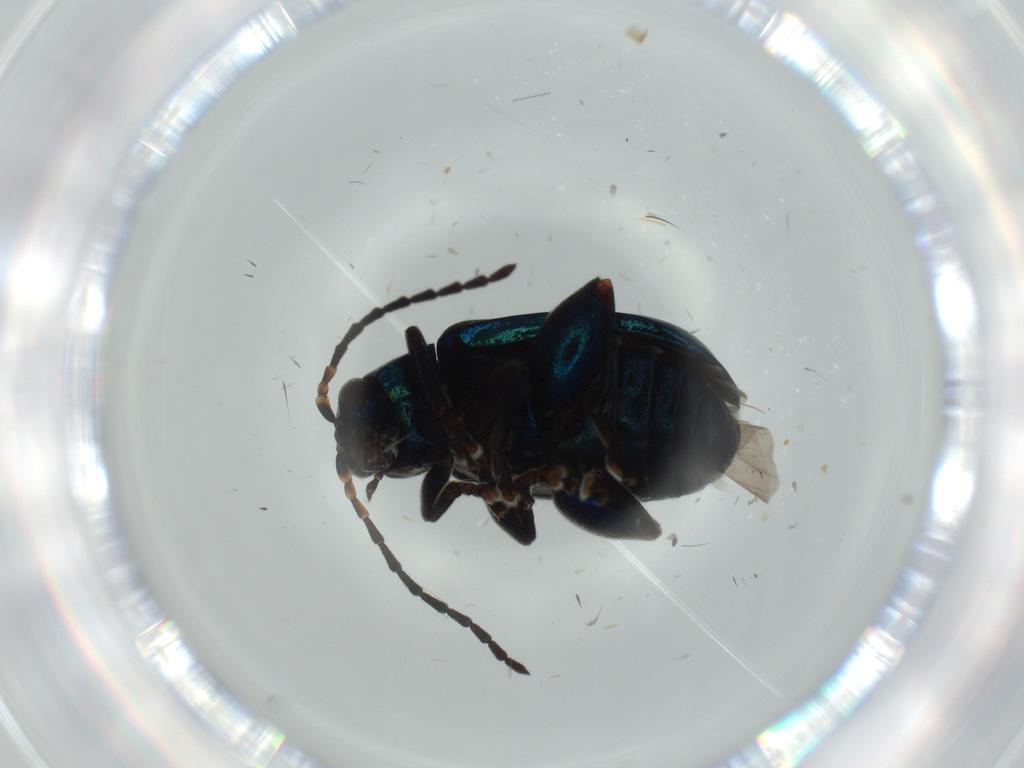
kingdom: Animalia
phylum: Arthropoda
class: Insecta
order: Coleoptera
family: Chrysomelidae
